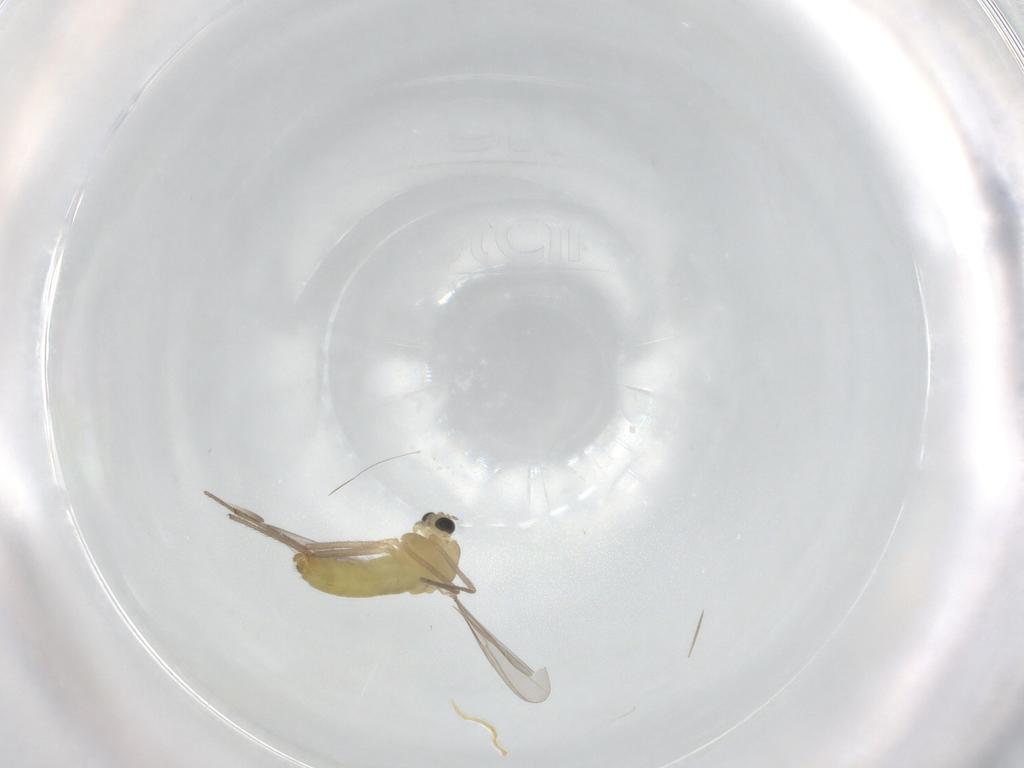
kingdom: Animalia
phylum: Arthropoda
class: Insecta
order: Diptera
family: Chironomidae
